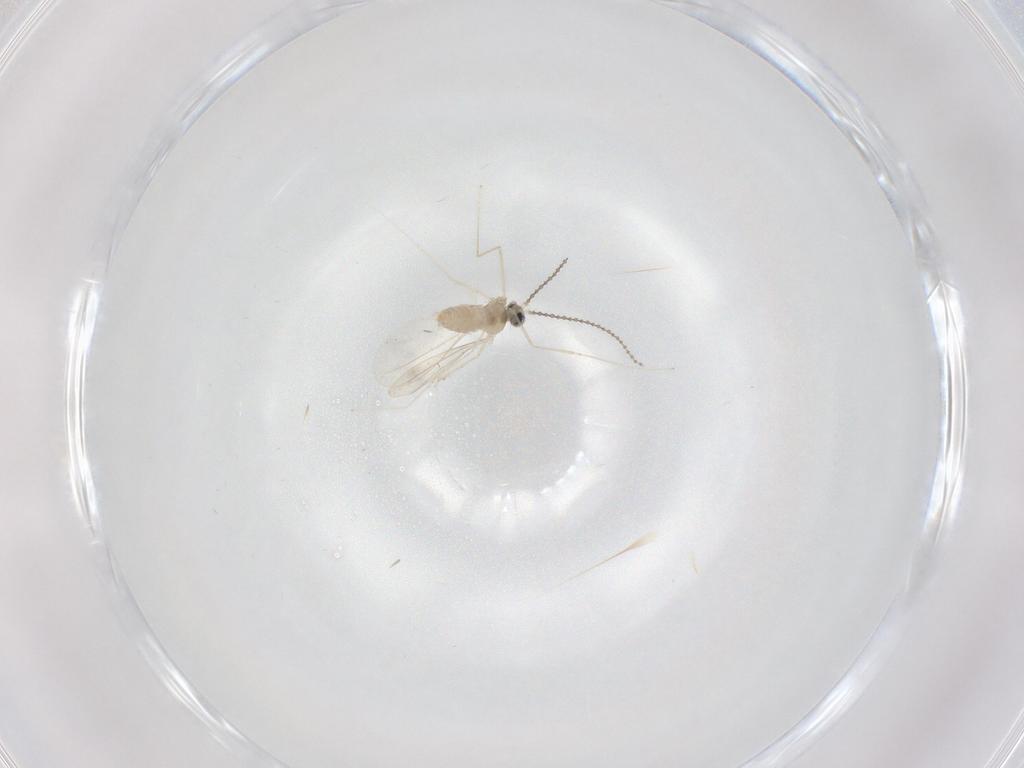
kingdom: Animalia
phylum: Arthropoda
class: Insecta
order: Diptera
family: Cecidomyiidae
